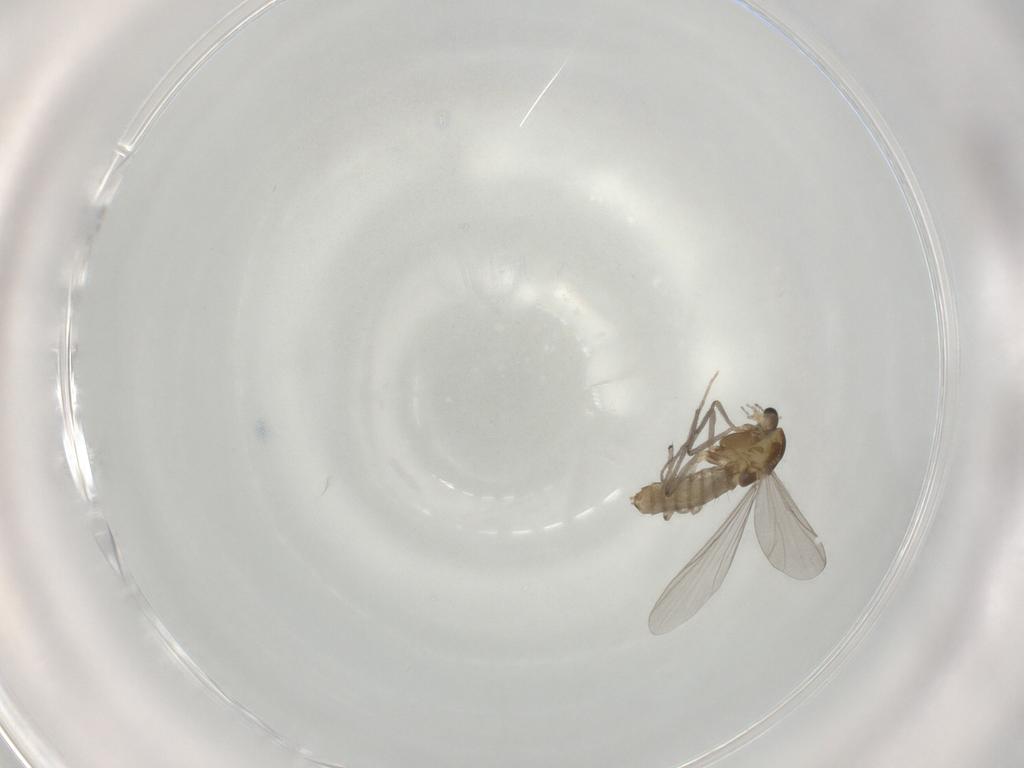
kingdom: Animalia
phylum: Arthropoda
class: Insecta
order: Diptera
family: Chironomidae
